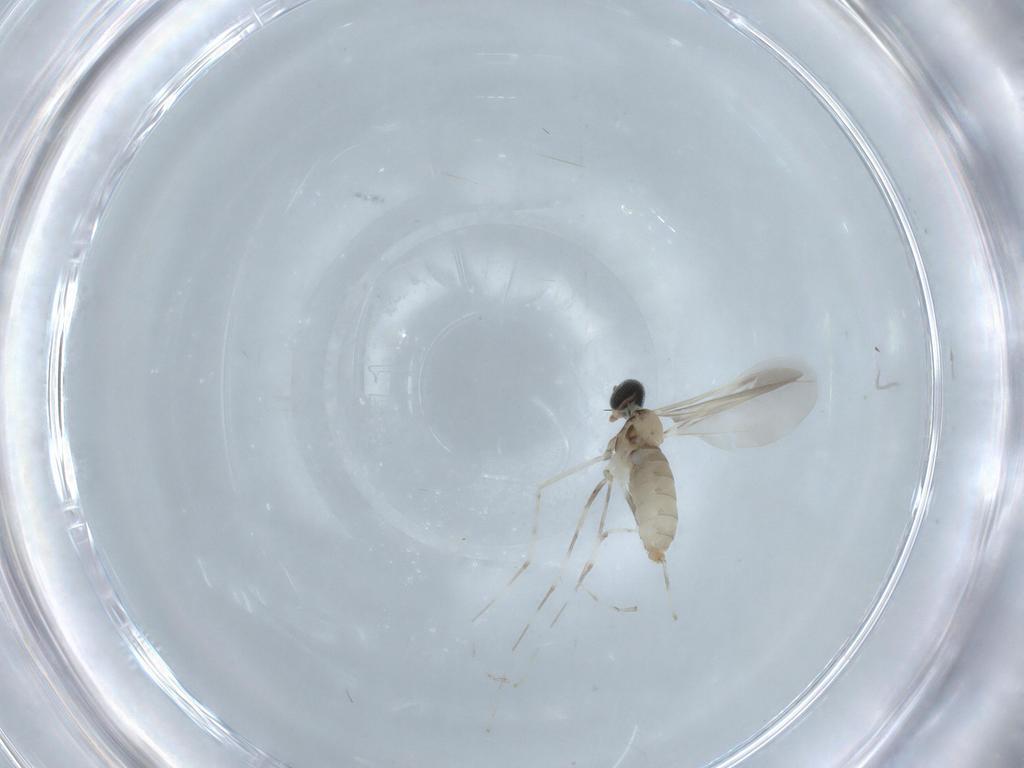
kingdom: Animalia
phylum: Arthropoda
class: Insecta
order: Diptera
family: Cecidomyiidae
